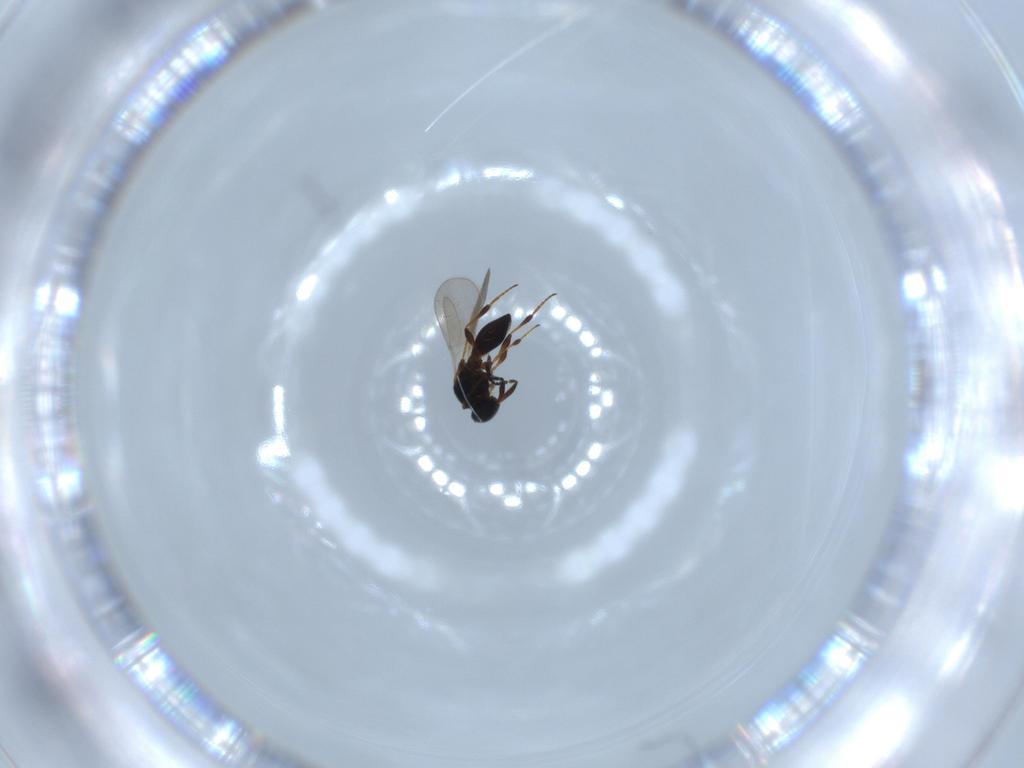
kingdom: Animalia
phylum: Arthropoda
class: Insecta
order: Hymenoptera
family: Platygastridae
